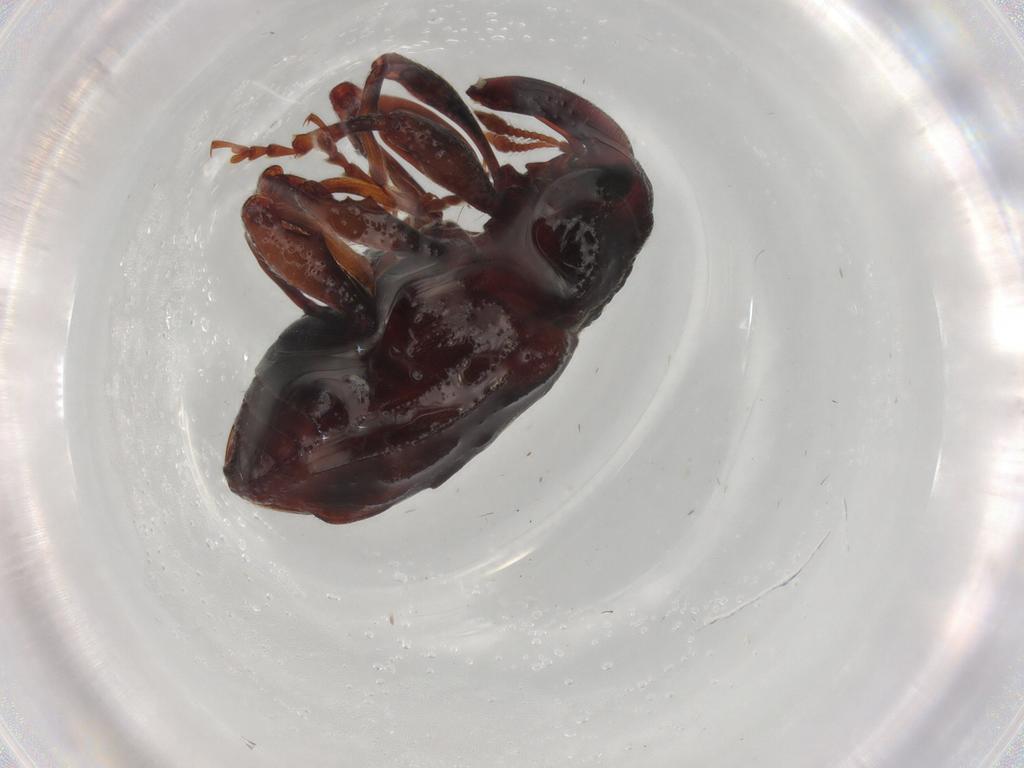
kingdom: Animalia
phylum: Arthropoda
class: Insecta
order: Coleoptera
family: Curculionidae
